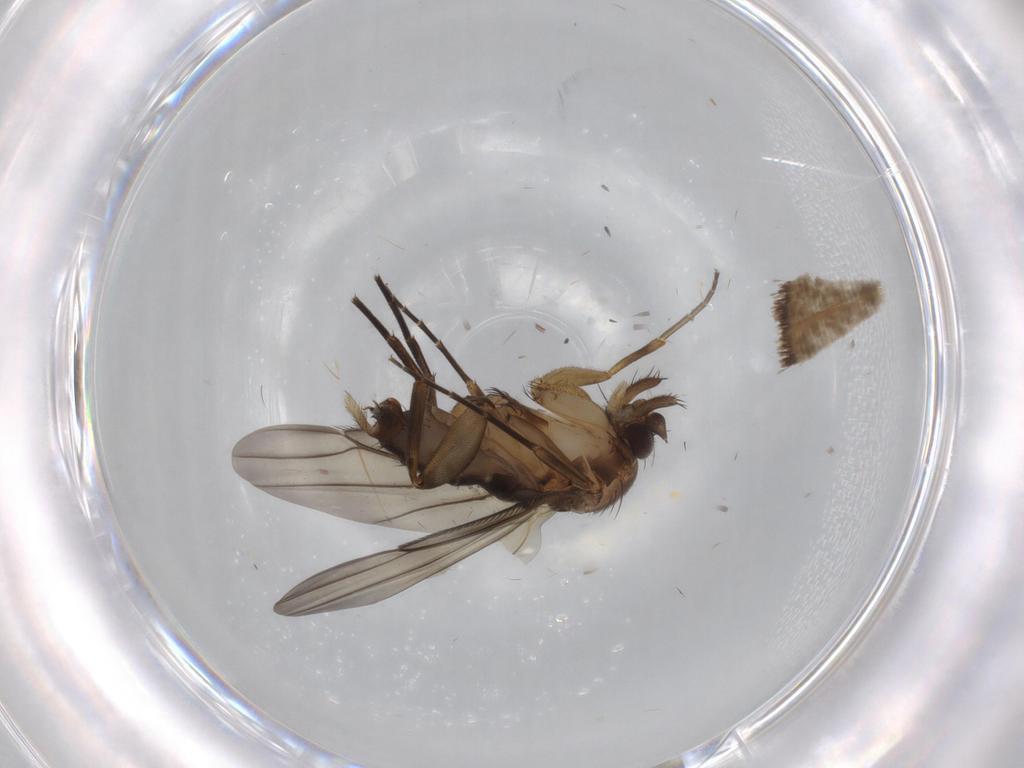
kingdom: Animalia
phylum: Arthropoda
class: Insecta
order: Diptera
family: Phoridae
